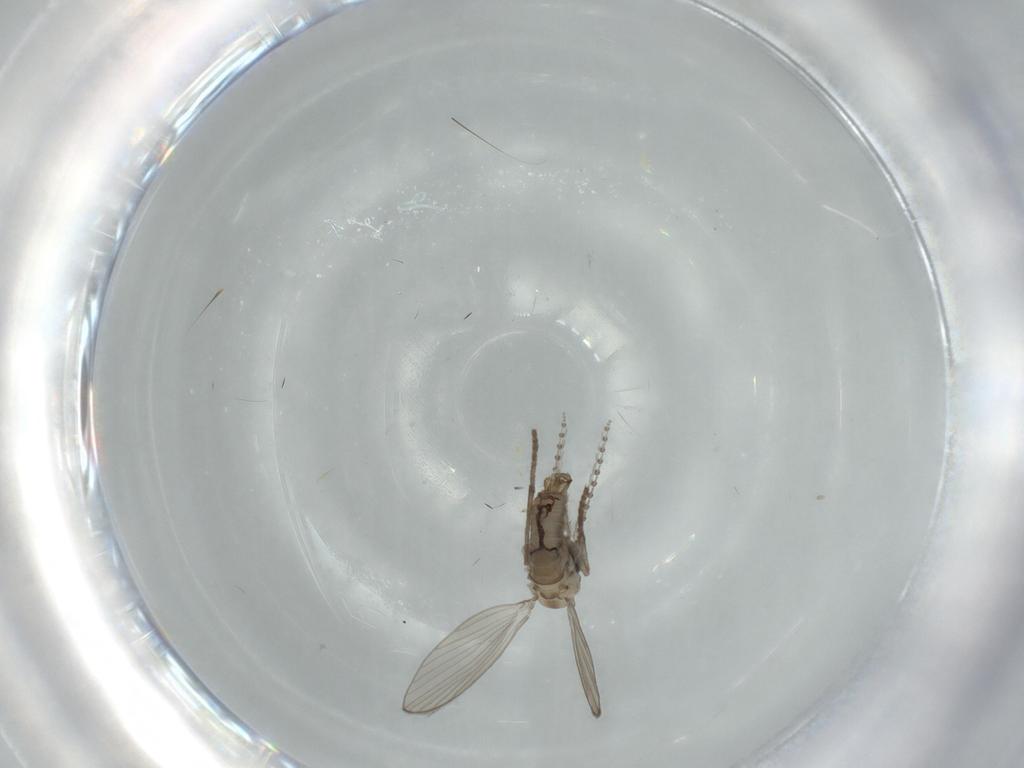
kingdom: Animalia
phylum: Arthropoda
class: Insecta
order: Diptera
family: Psychodidae
